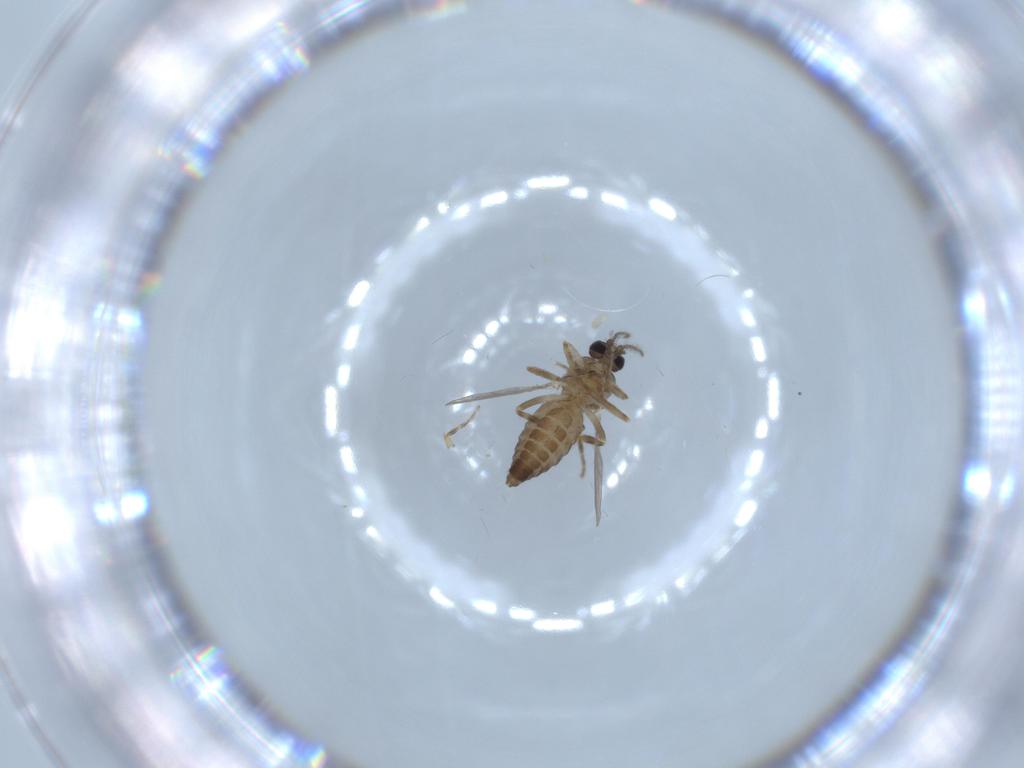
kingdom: Animalia
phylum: Arthropoda
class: Insecta
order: Diptera
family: Ceratopogonidae
